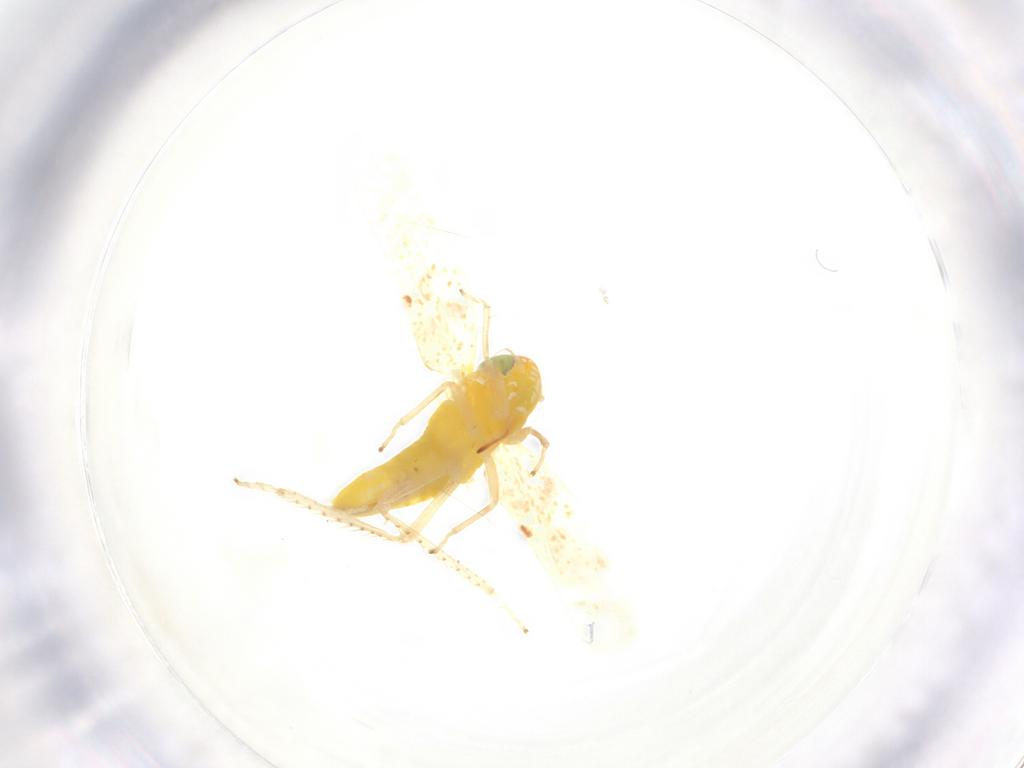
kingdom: Animalia
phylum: Arthropoda
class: Insecta
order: Hemiptera
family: Cicadellidae
